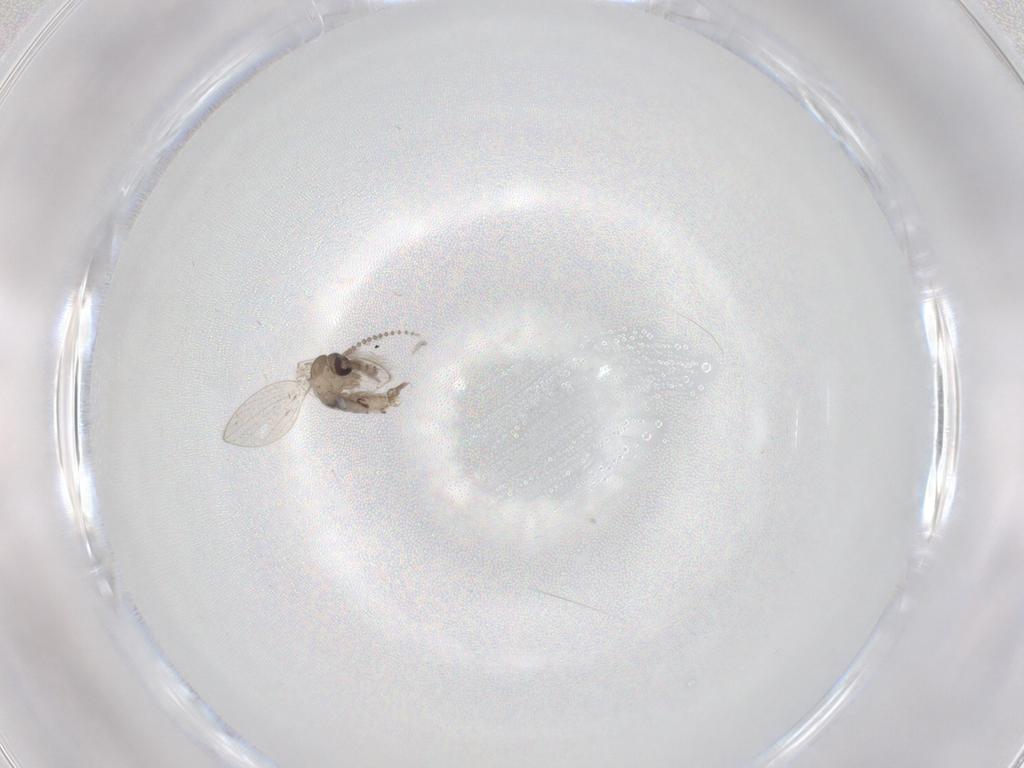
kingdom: Animalia
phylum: Arthropoda
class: Insecta
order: Diptera
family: Psychodidae
